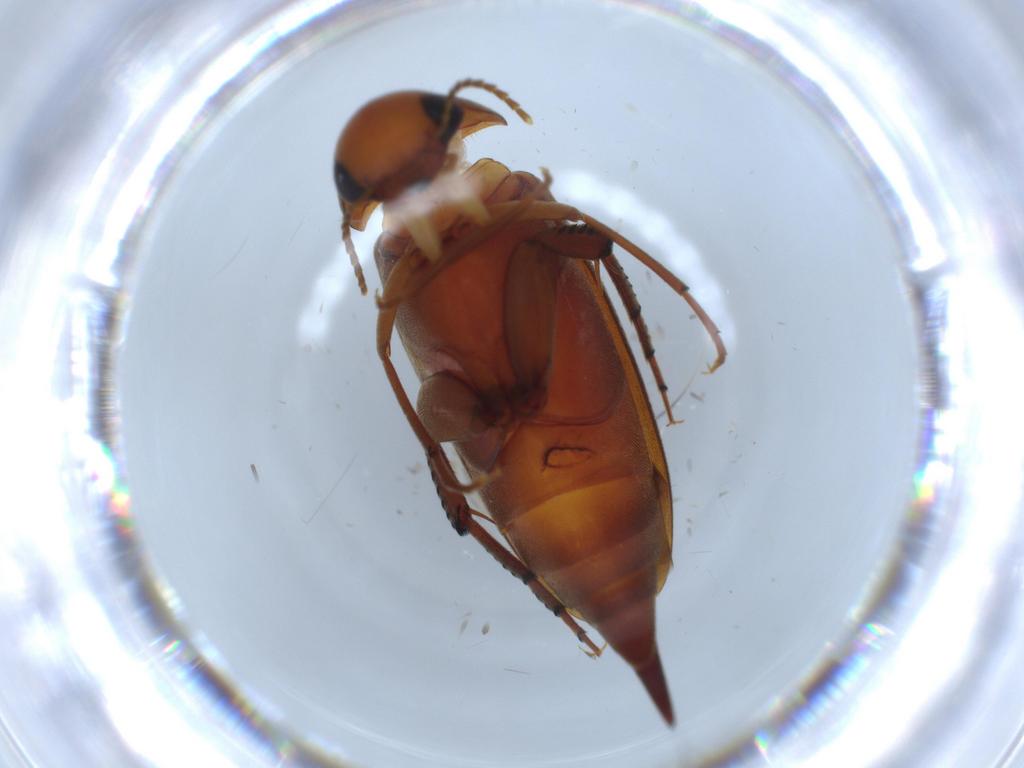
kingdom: Animalia
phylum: Arthropoda
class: Insecta
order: Coleoptera
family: Mordellidae
